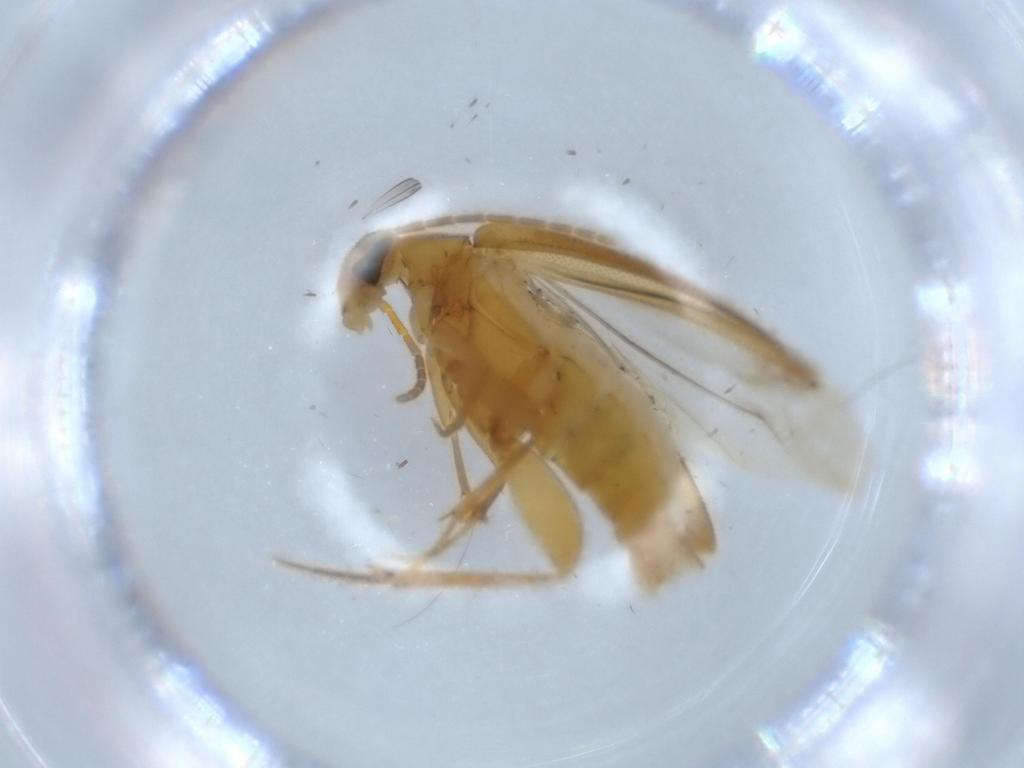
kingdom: Animalia
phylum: Arthropoda
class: Insecta
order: Coleoptera
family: Scraptiidae
